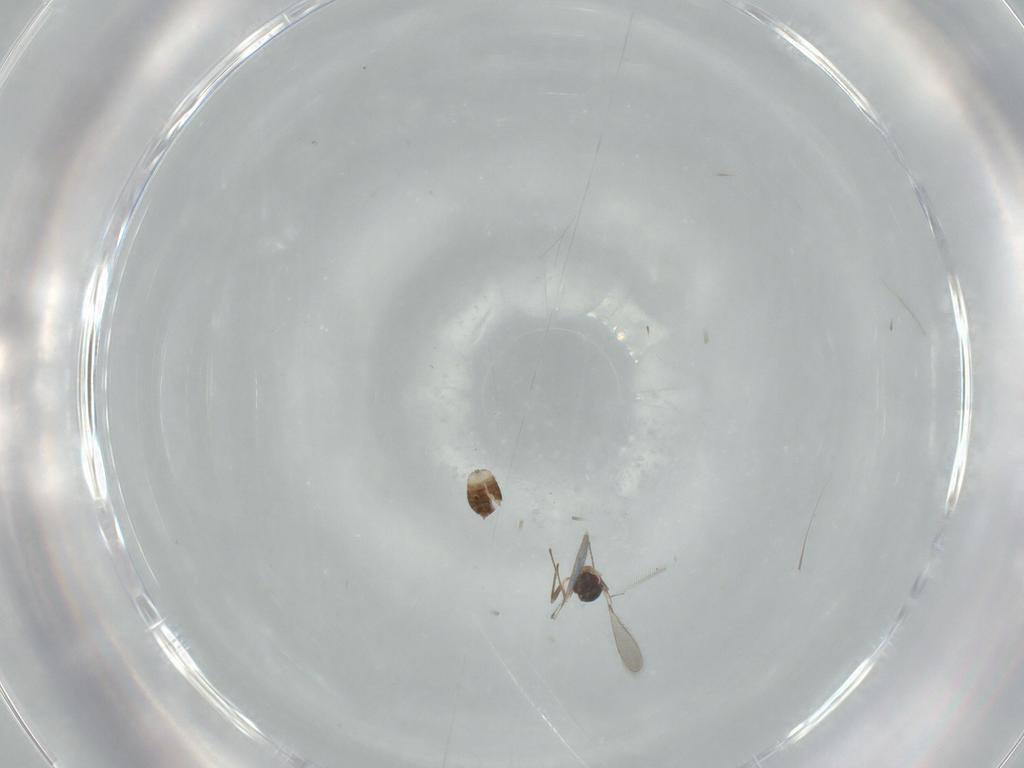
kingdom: Animalia
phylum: Arthropoda
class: Insecta
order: Hymenoptera
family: Mymaridae
